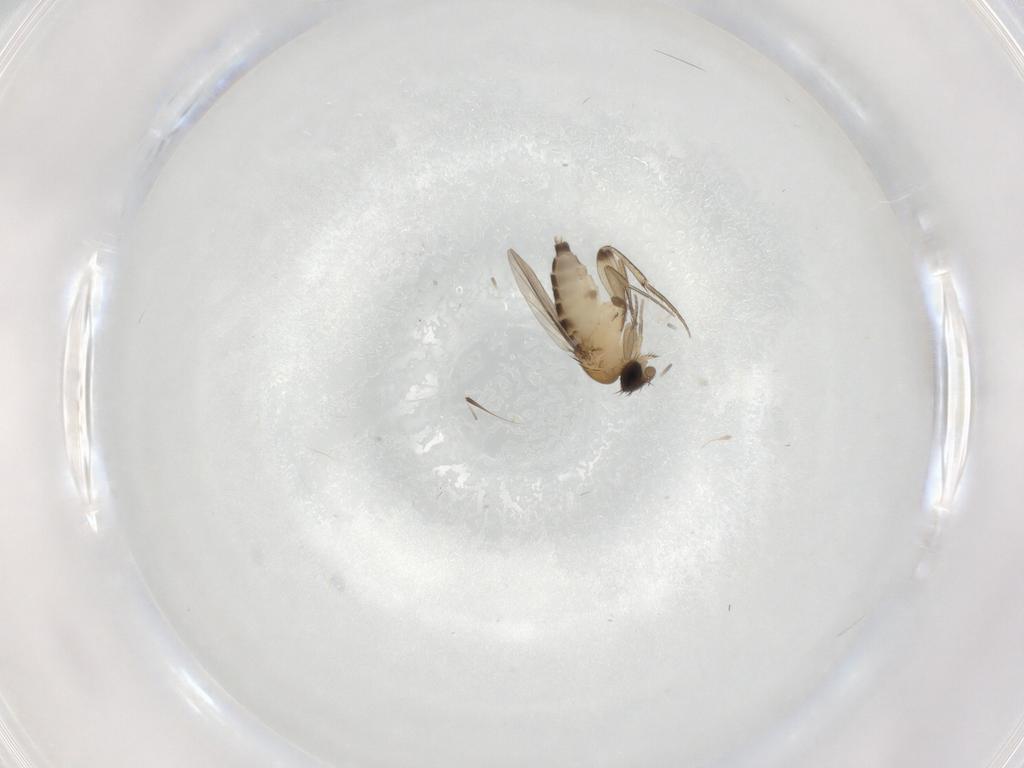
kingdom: Animalia
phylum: Arthropoda
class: Insecta
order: Diptera
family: Phoridae
